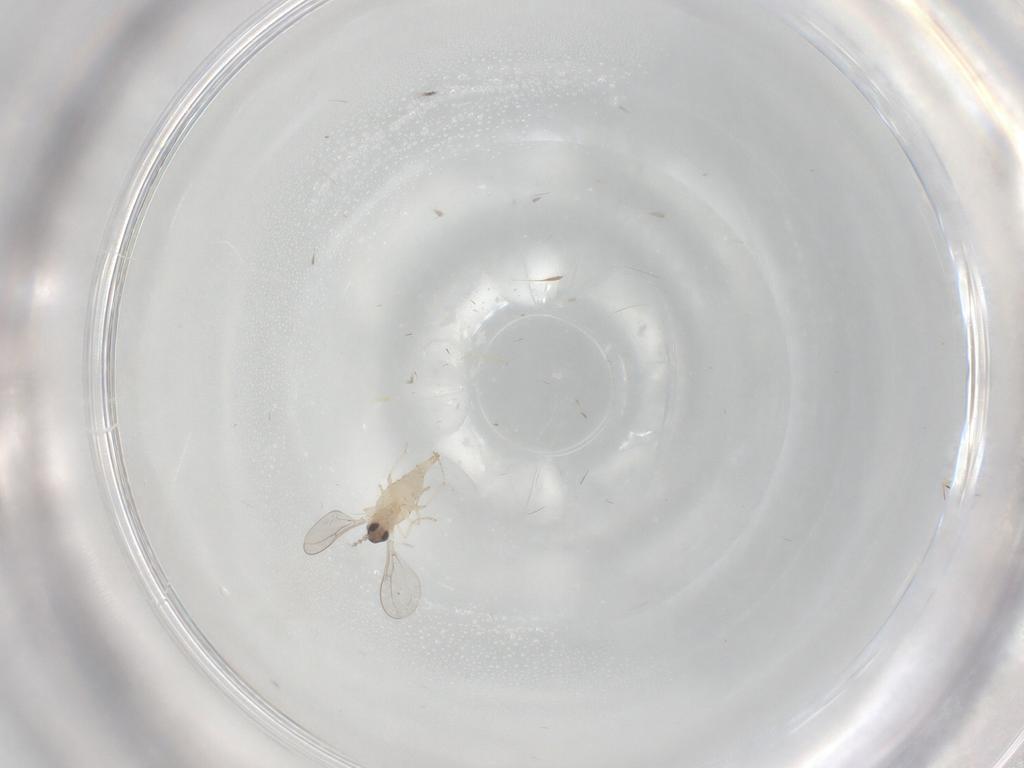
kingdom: Animalia
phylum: Arthropoda
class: Insecta
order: Diptera
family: Cecidomyiidae
